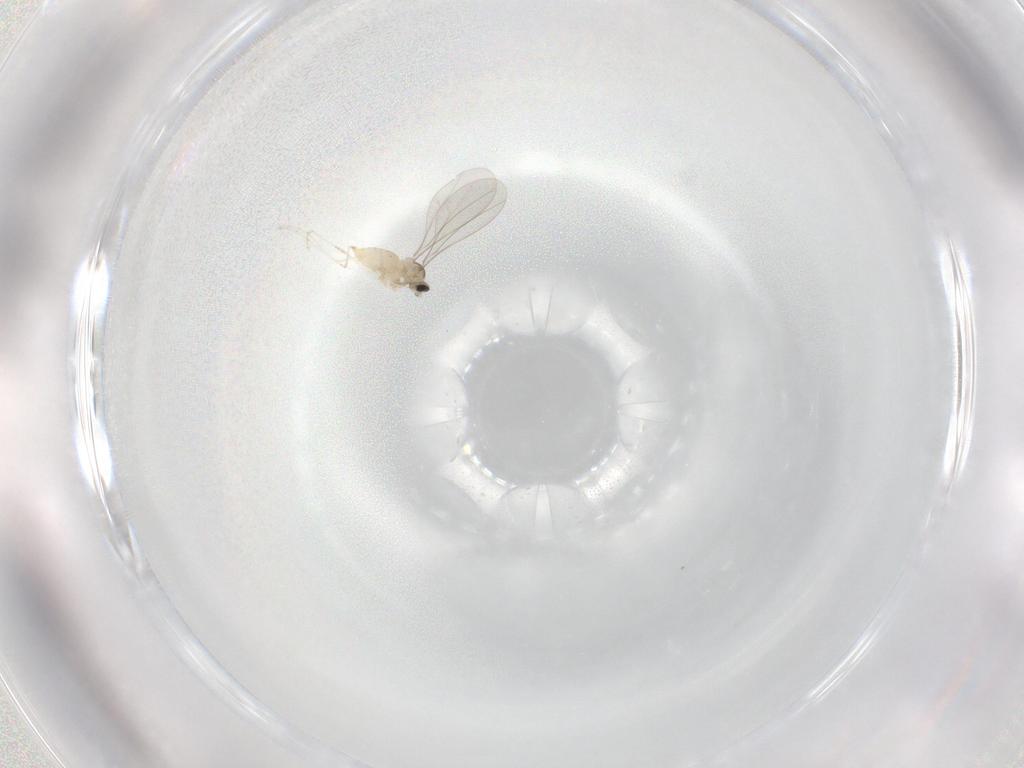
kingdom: Animalia
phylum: Arthropoda
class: Insecta
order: Diptera
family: Cecidomyiidae
